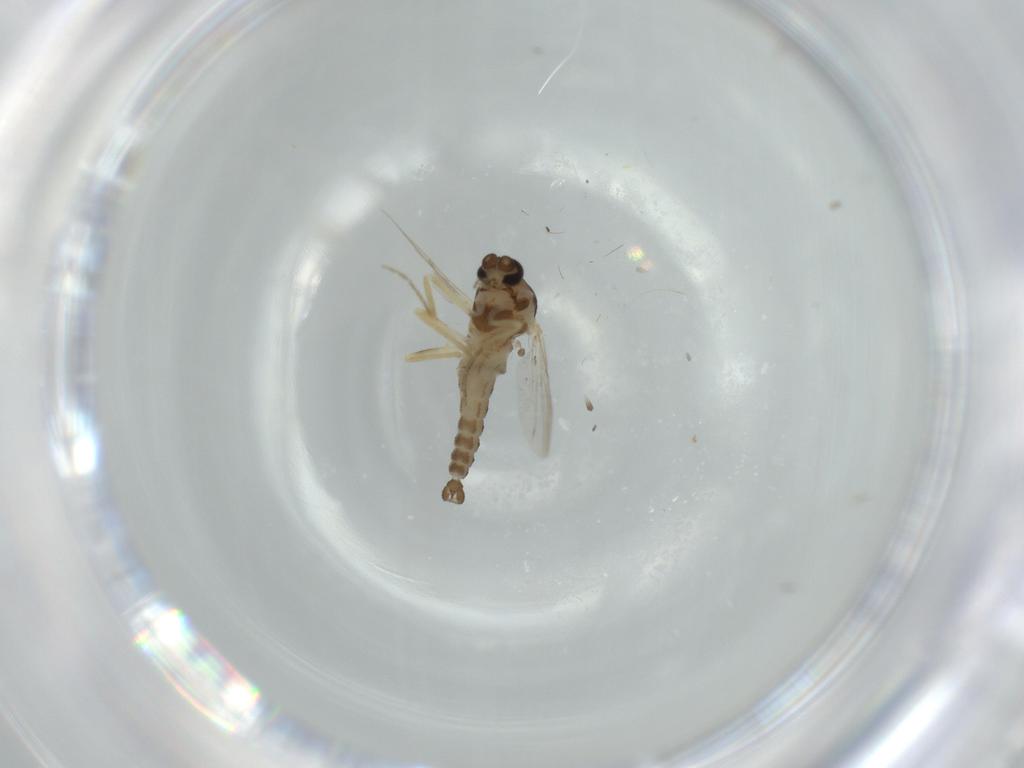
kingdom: Animalia
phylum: Arthropoda
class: Insecta
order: Diptera
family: Ceratopogonidae
